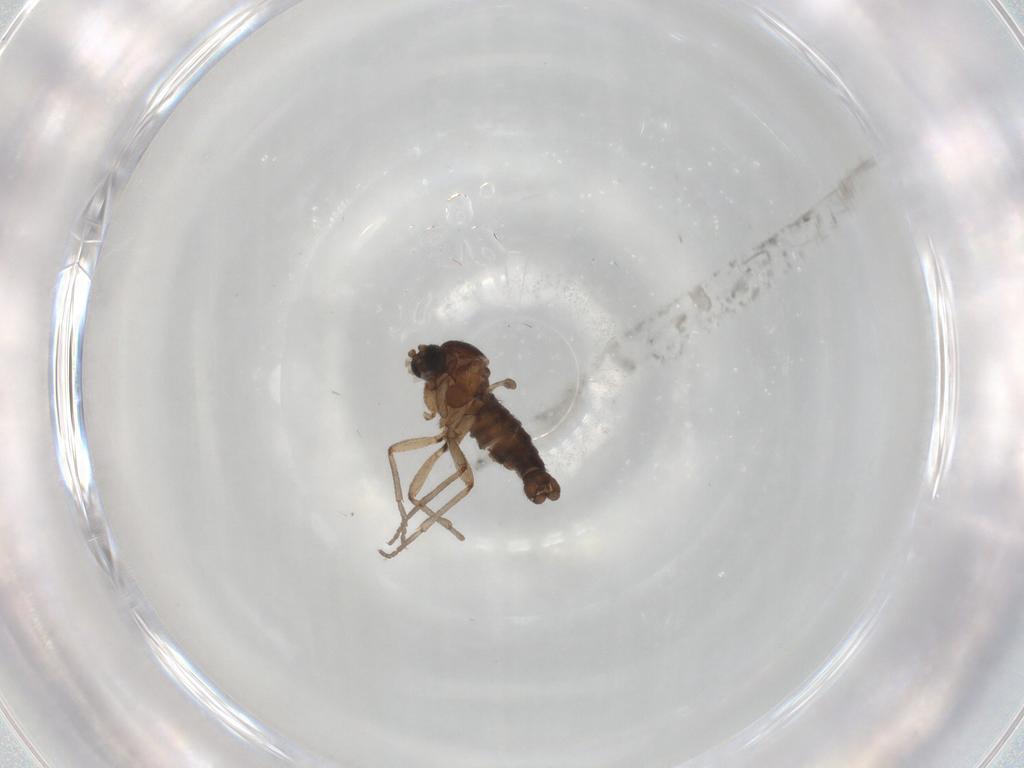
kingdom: Animalia
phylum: Arthropoda
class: Insecta
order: Diptera
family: Sciaridae
